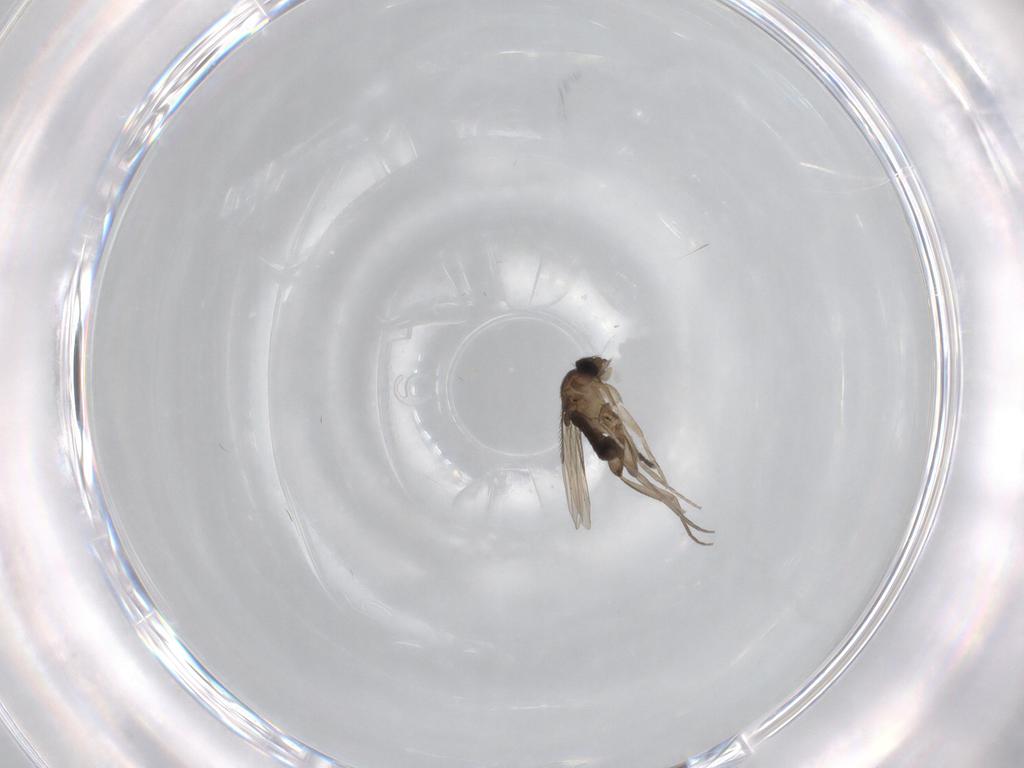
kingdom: Animalia
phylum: Arthropoda
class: Insecta
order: Diptera
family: Phoridae
